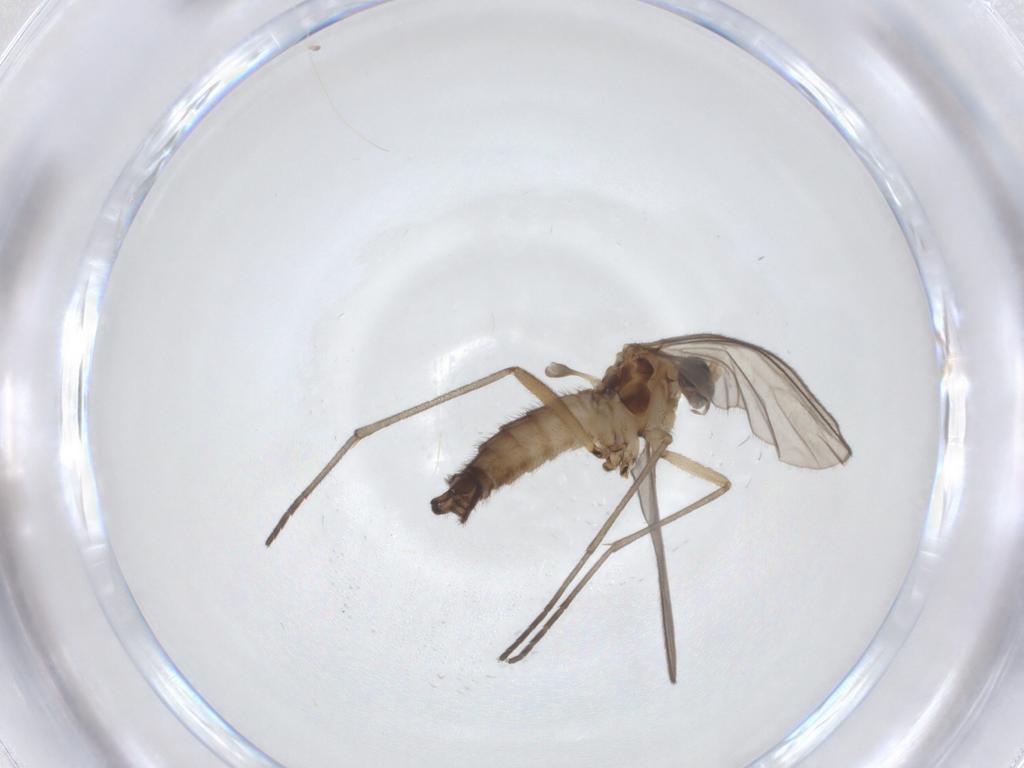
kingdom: Animalia
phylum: Arthropoda
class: Insecta
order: Diptera
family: Sciaridae
